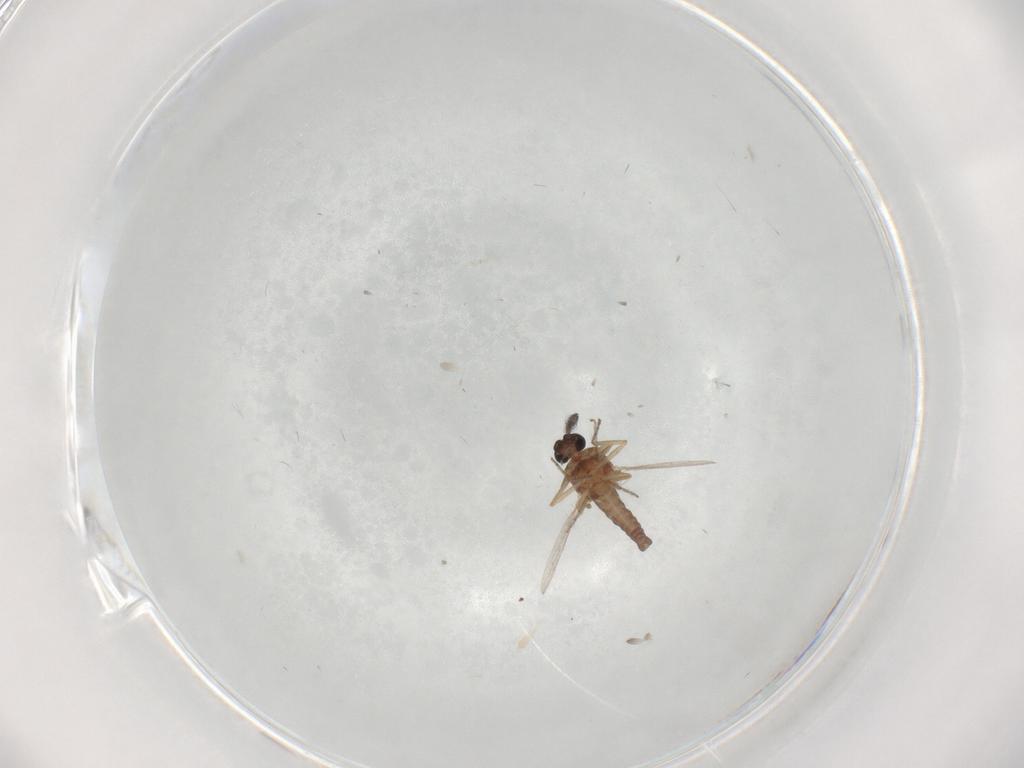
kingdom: Animalia
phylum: Arthropoda
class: Insecta
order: Diptera
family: Ceratopogonidae
